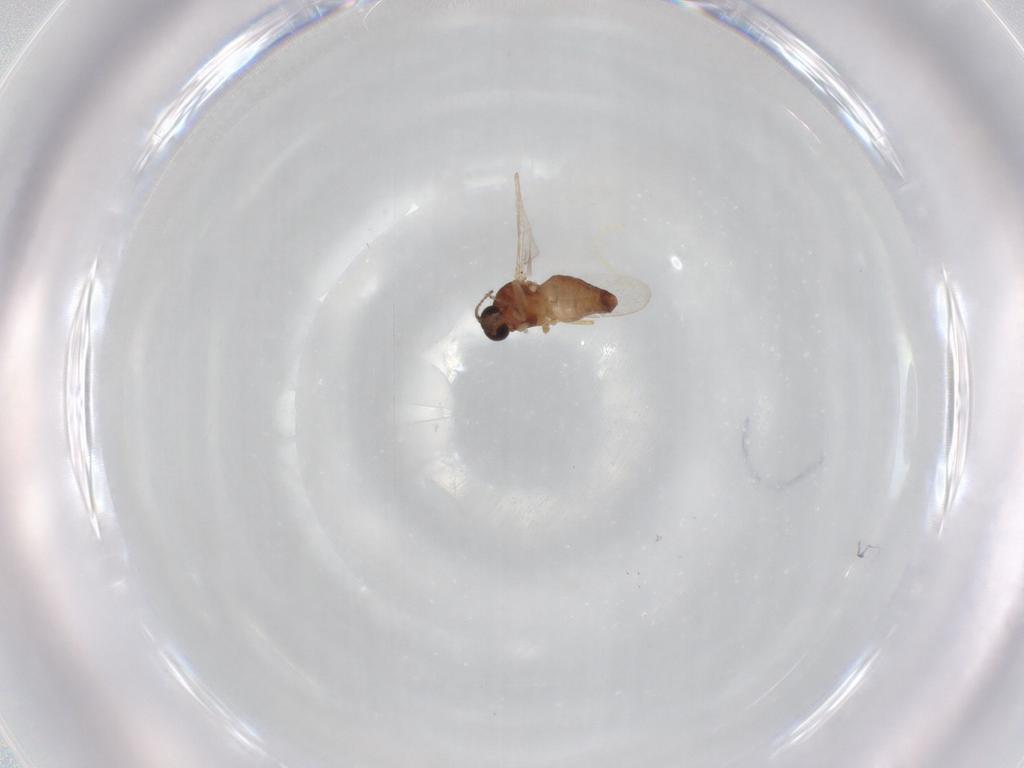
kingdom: Animalia
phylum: Arthropoda
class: Insecta
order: Diptera
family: Ceratopogonidae
